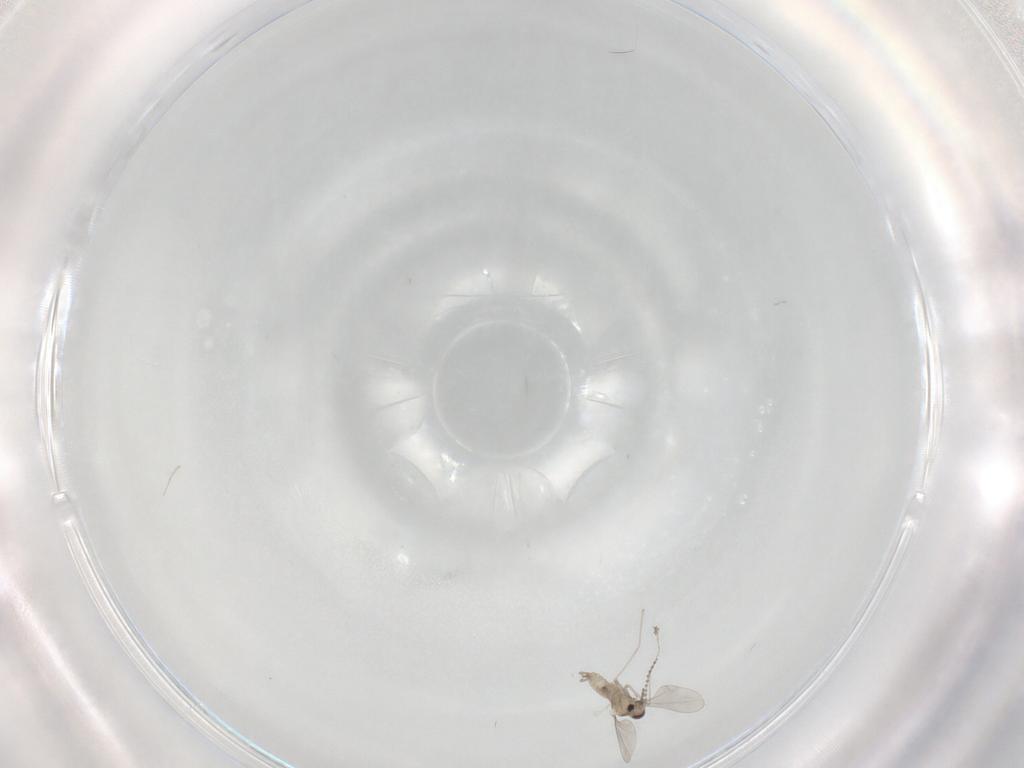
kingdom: Animalia
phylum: Arthropoda
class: Insecta
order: Diptera
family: Cecidomyiidae
